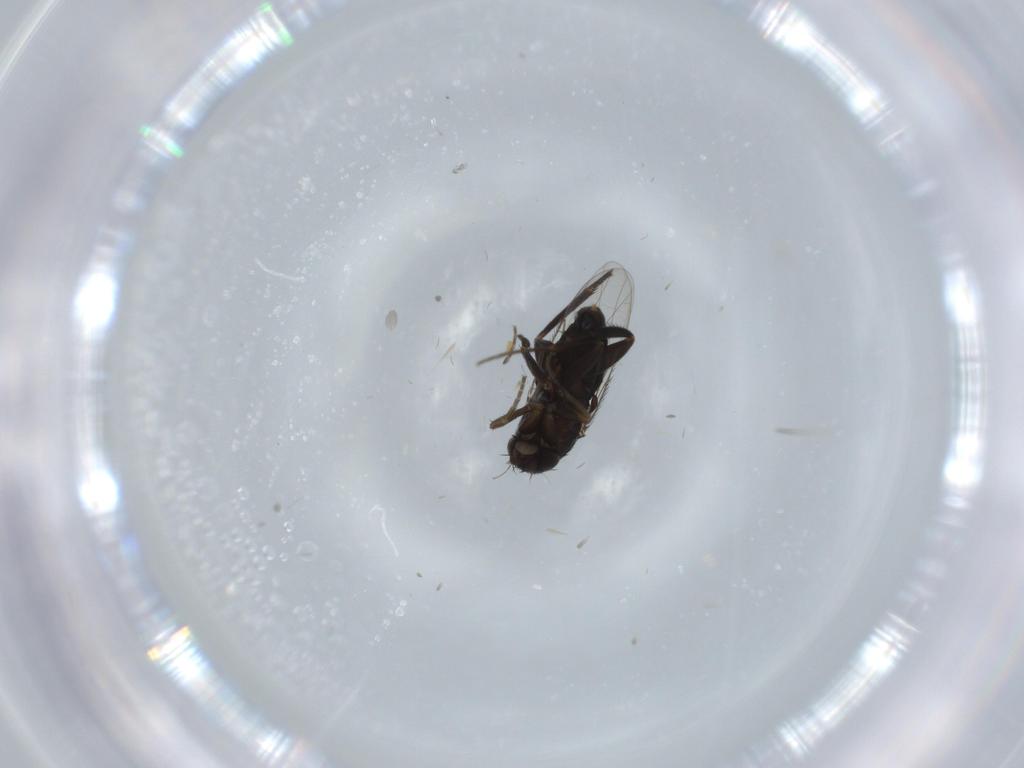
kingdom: Animalia
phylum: Arthropoda
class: Insecta
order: Diptera
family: Phoridae
